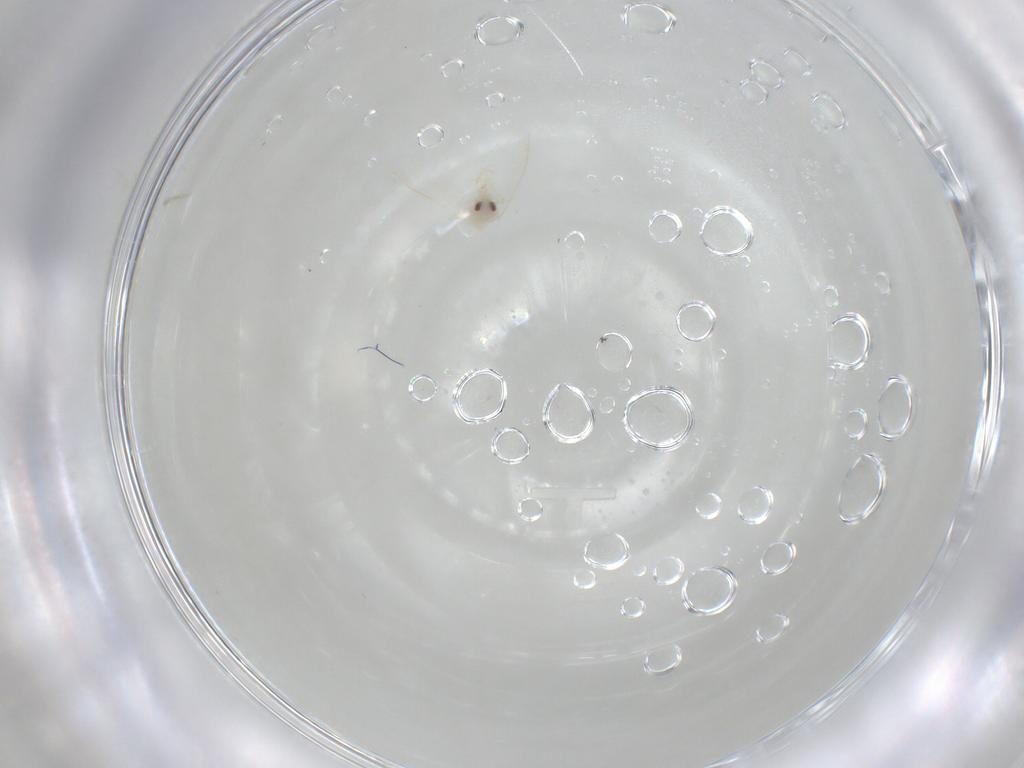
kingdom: Animalia
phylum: Arthropoda
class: Insecta
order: Hemiptera
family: Aleyrodidae
